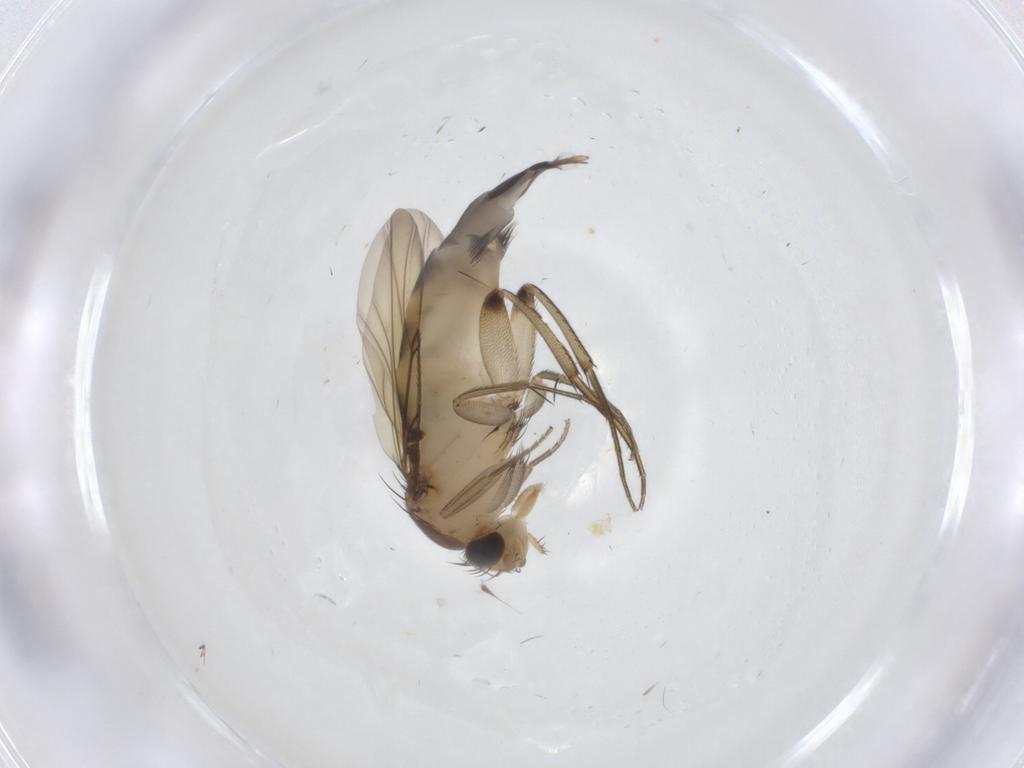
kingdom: Animalia
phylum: Arthropoda
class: Insecta
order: Diptera
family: Phoridae
